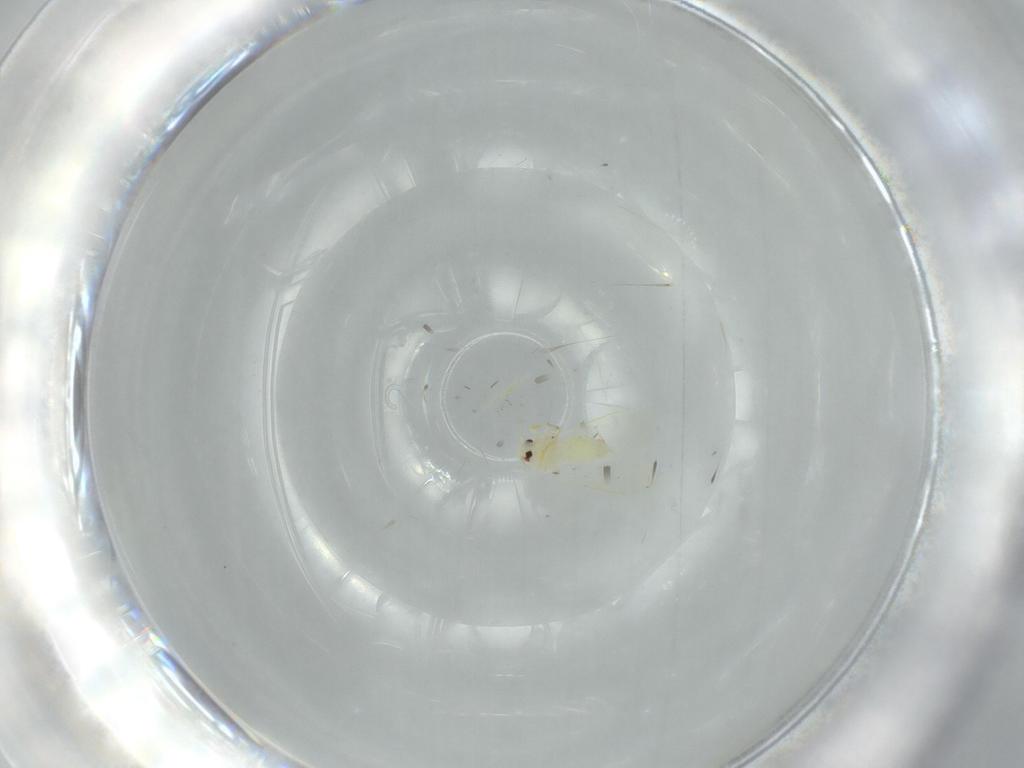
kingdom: Animalia
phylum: Arthropoda
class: Insecta
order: Hemiptera
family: Aleyrodidae
